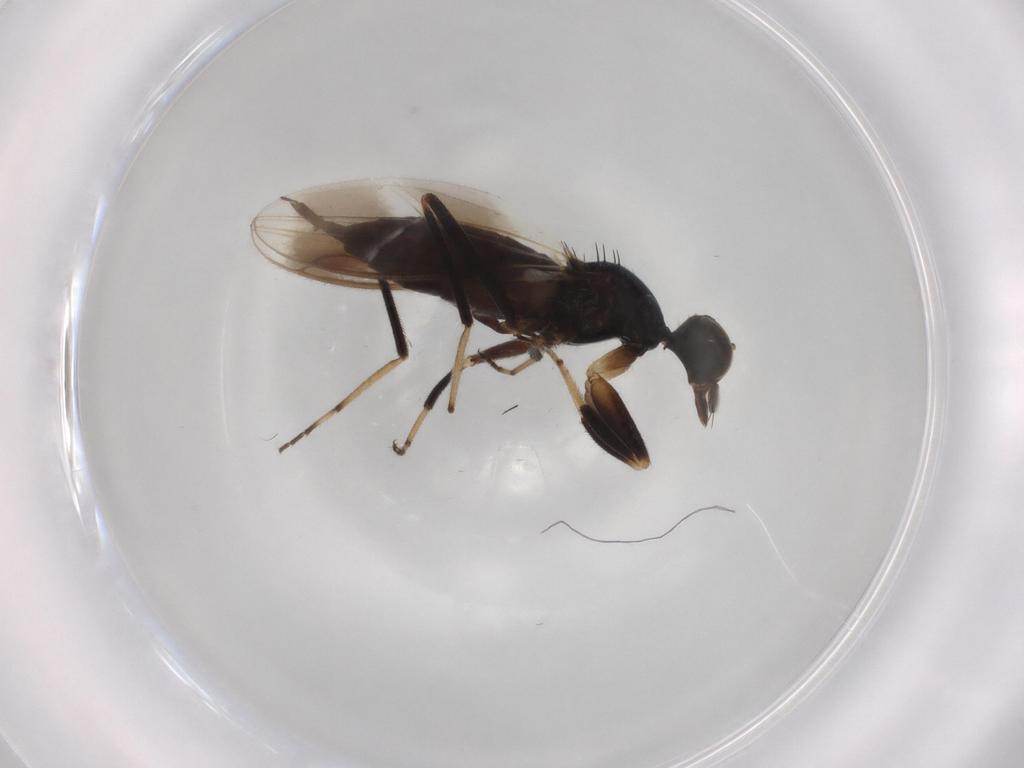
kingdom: Animalia
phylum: Arthropoda
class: Insecta
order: Diptera
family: Hybotidae
